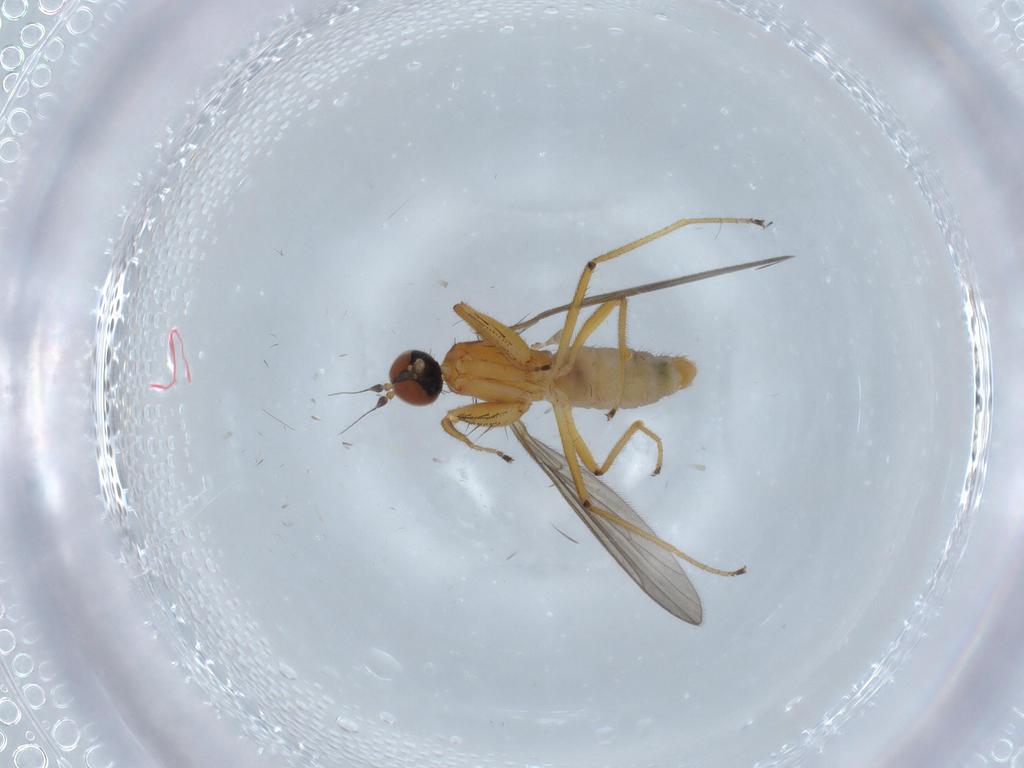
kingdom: Animalia
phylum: Arthropoda
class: Insecta
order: Diptera
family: Empididae
